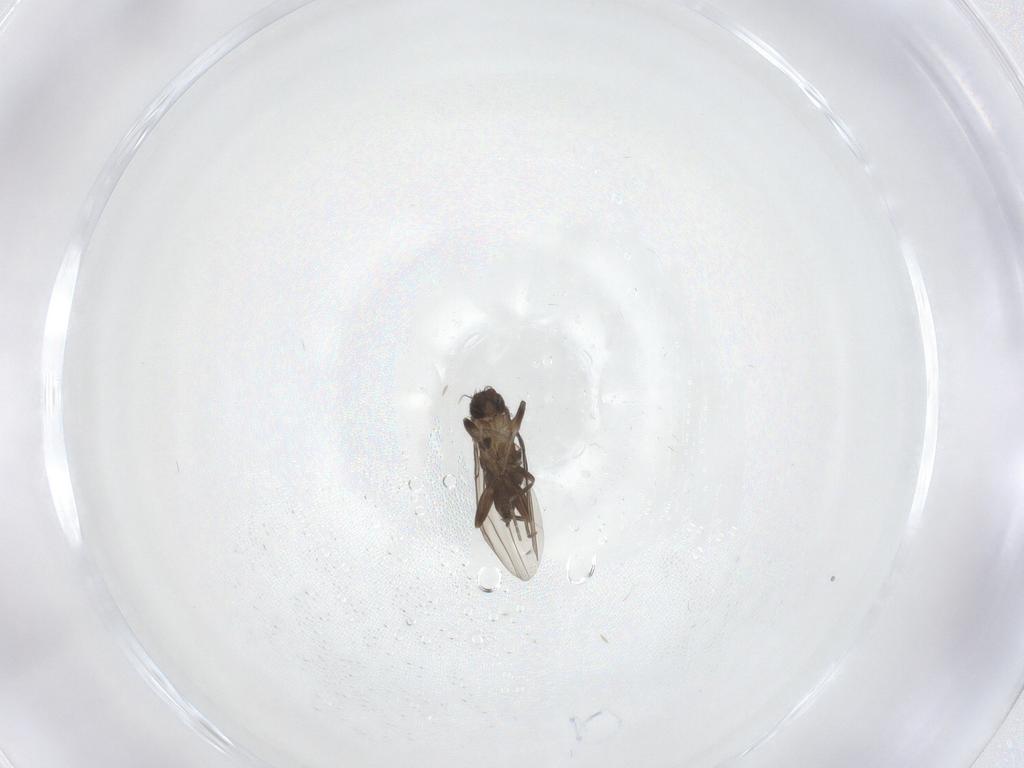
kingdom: Animalia
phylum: Arthropoda
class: Insecta
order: Diptera
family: Phoridae
